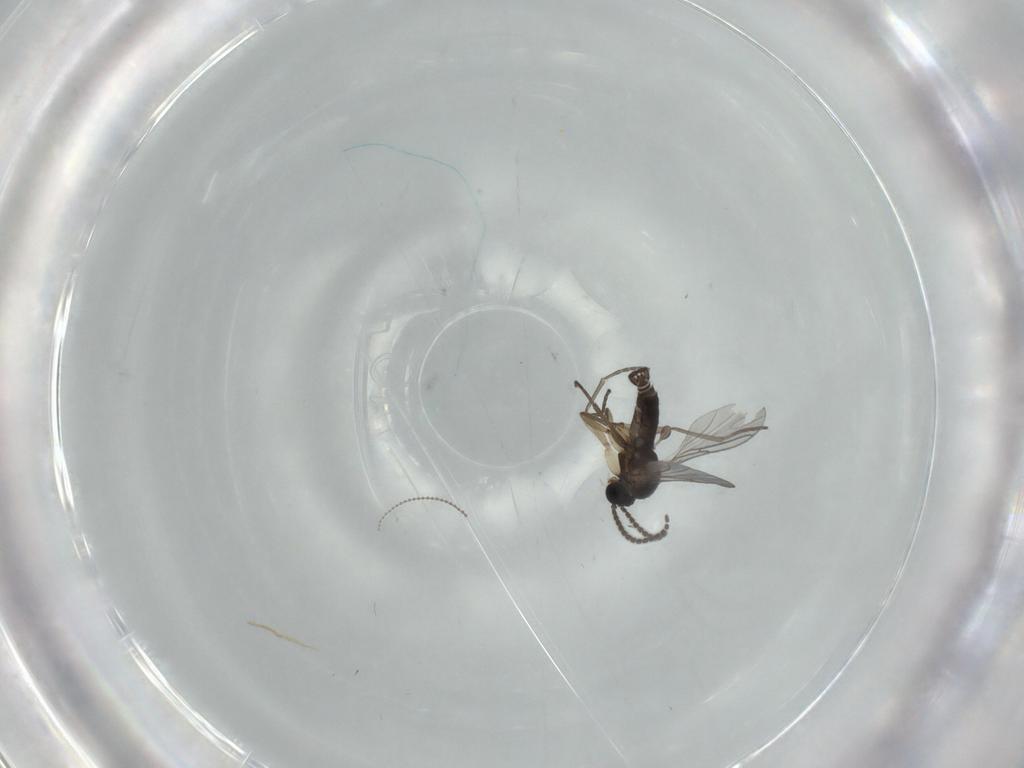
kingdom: Animalia
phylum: Arthropoda
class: Insecta
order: Diptera
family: Sciaridae
